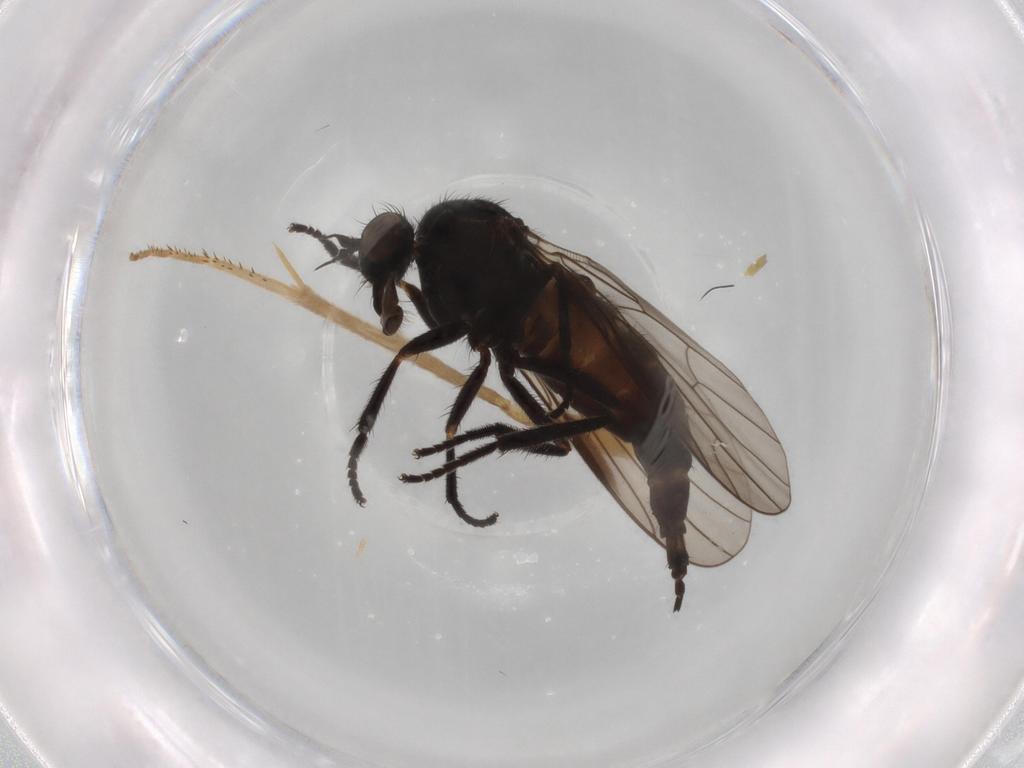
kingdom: Animalia
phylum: Arthropoda
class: Insecta
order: Diptera
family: Empididae
